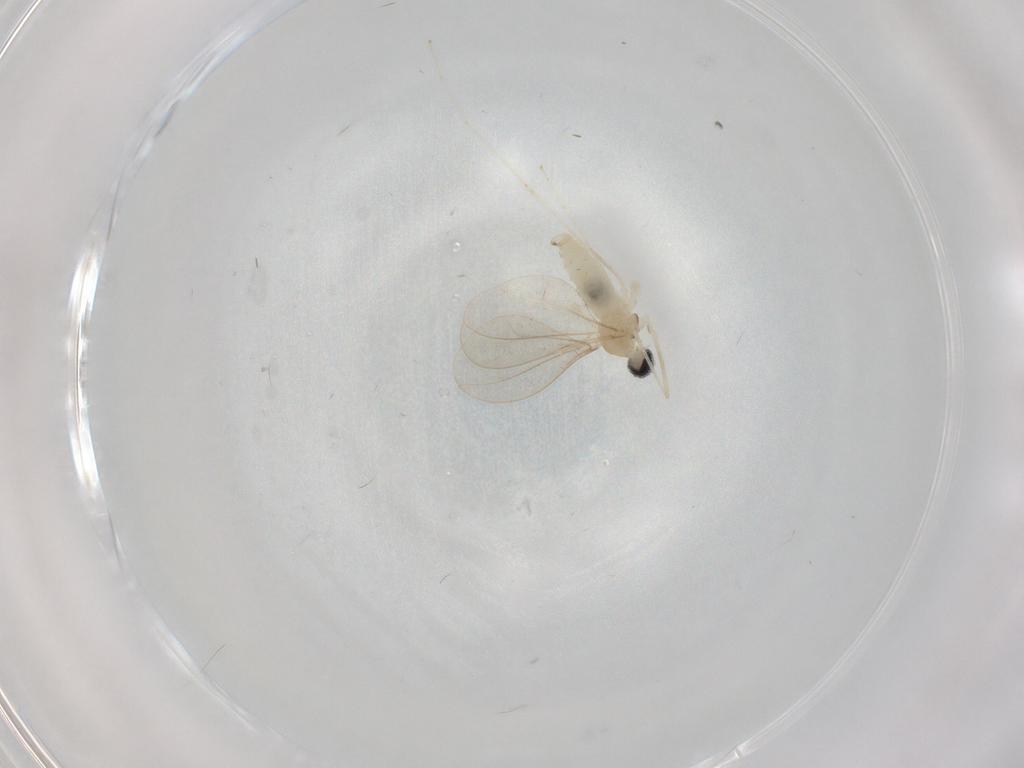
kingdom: Animalia
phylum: Arthropoda
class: Insecta
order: Diptera
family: Cecidomyiidae
